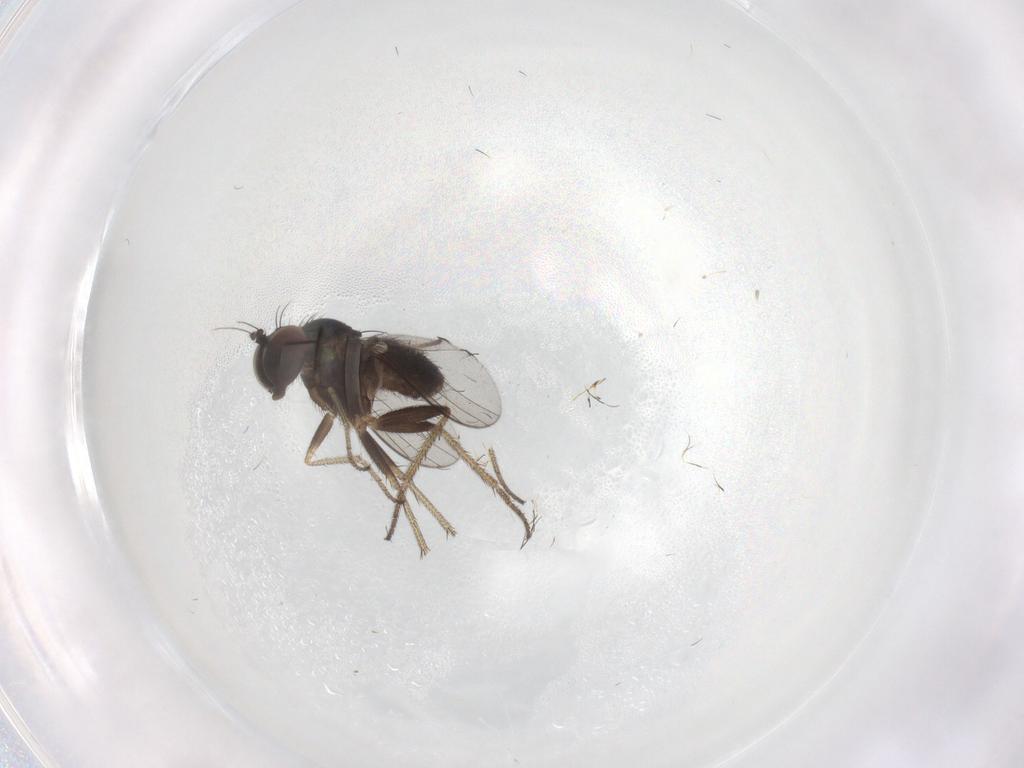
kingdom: Animalia
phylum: Arthropoda
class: Insecta
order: Diptera
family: Dolichopodidae
